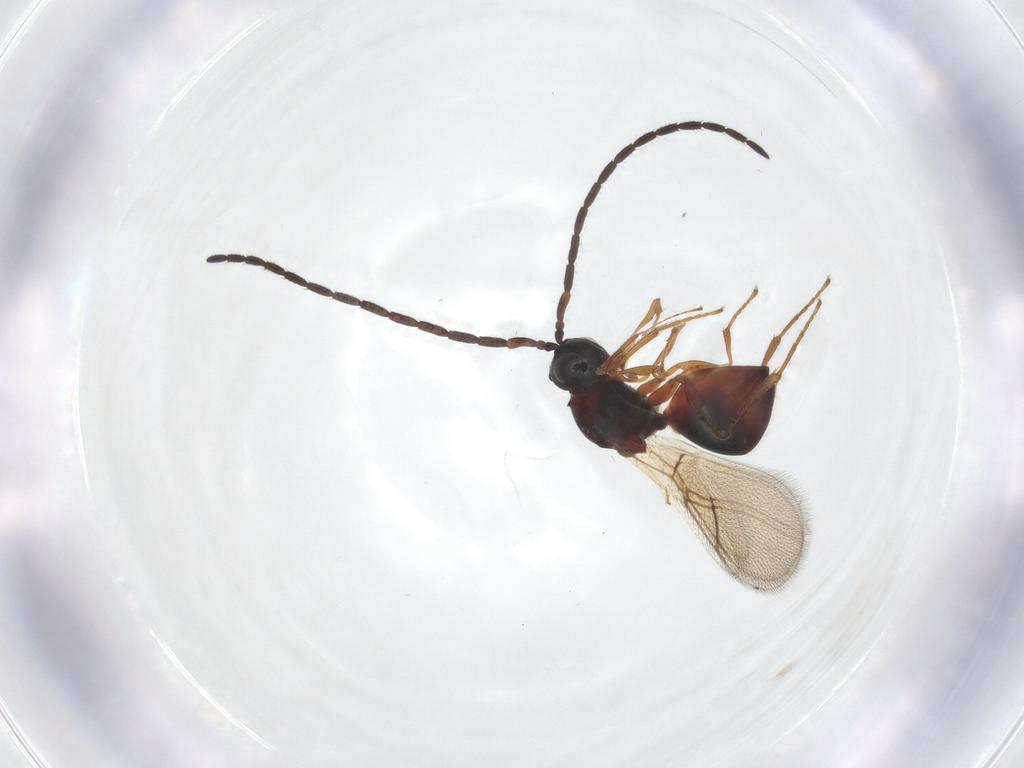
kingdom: Animalia
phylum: Arthropoda
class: Insecta
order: Hymenoptera
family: Figitidae
